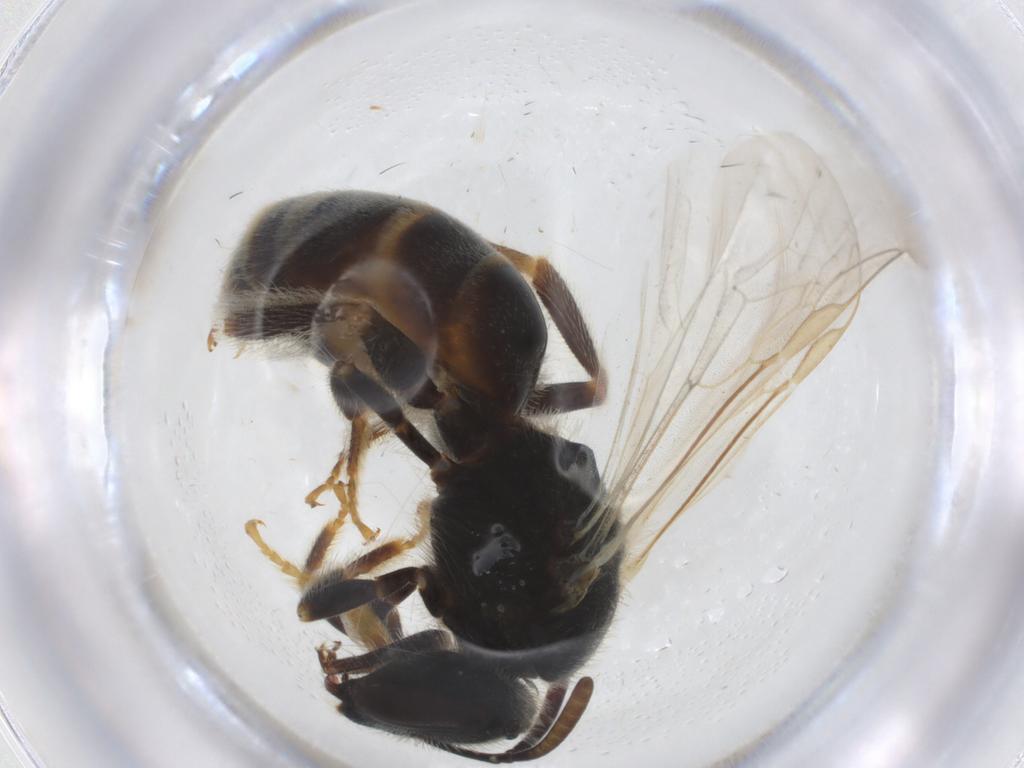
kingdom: Animalia
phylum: Arthropoda
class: Insecta
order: Hymenoptera
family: Halictidae
